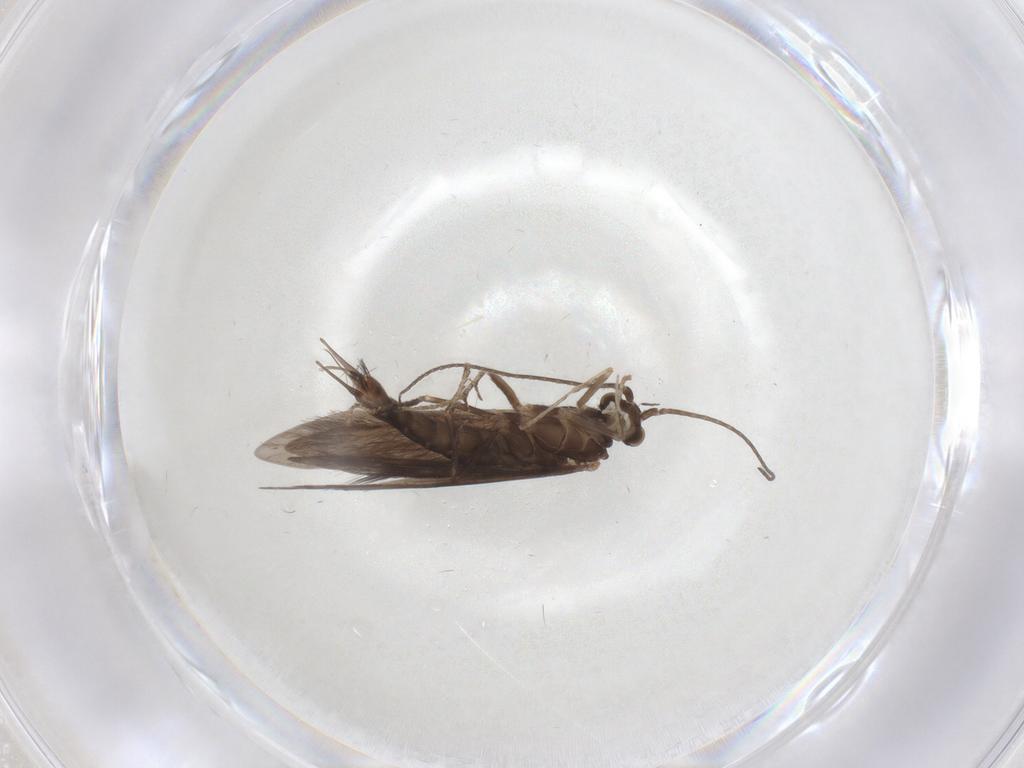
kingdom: Animalia
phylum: Arthropoda
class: Insecta
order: Trichoptera
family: Xiphocentronidae
